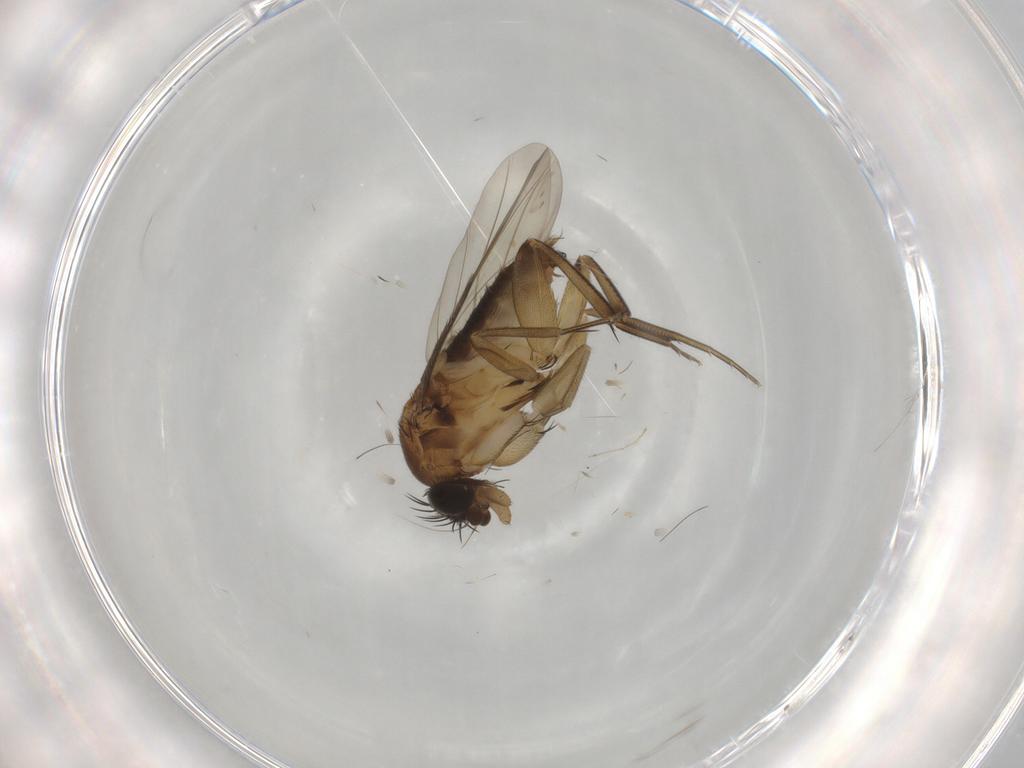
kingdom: Animalia
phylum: Arthropoda
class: Insecta
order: Diptera
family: Phoridae
